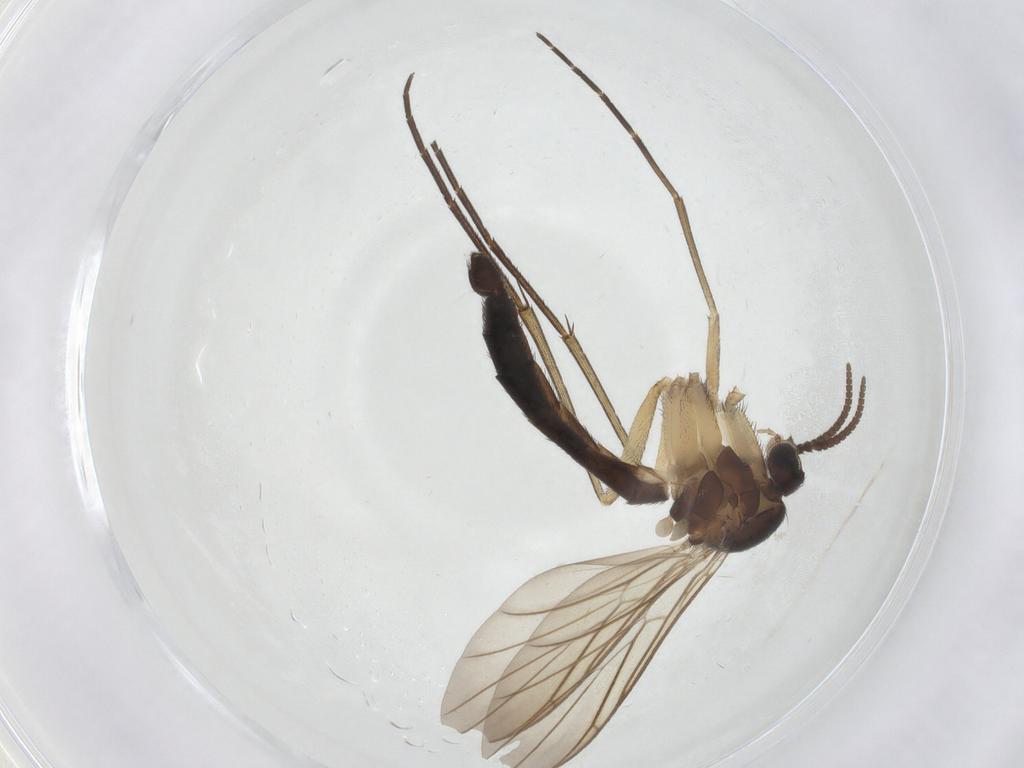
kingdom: Animalia
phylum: Arthropoda
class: Insecta
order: Diptera
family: Keroplatidae
